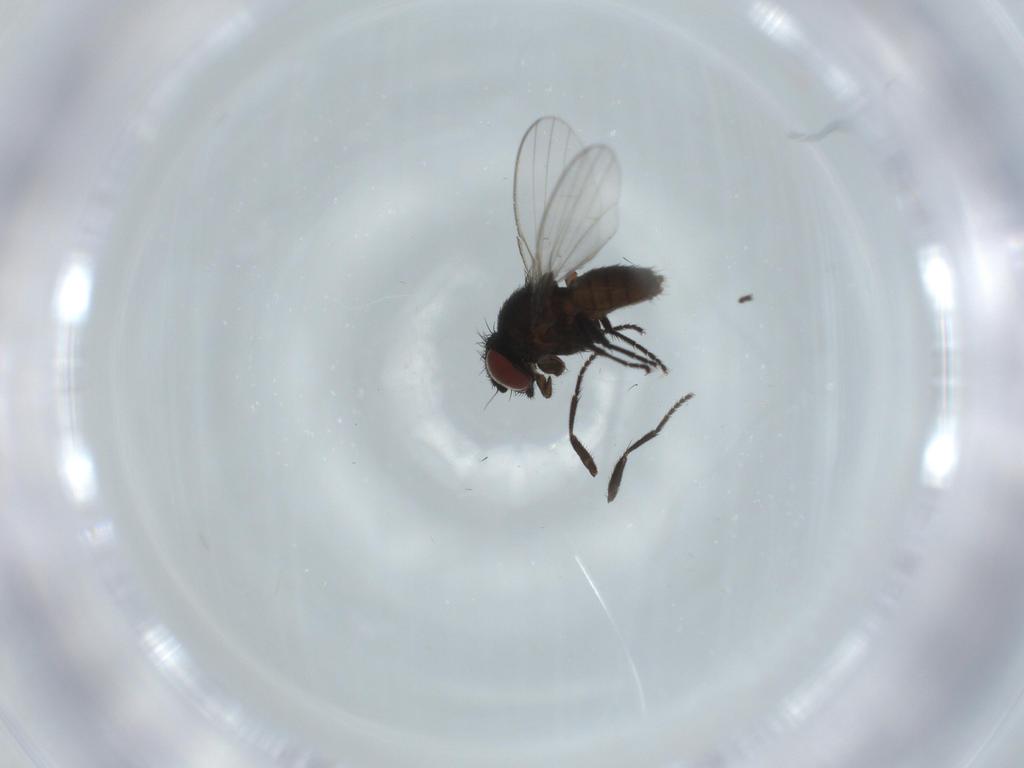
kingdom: Animalia
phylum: Arthropoda
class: Insecta
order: Diptera
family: Milichiidae
